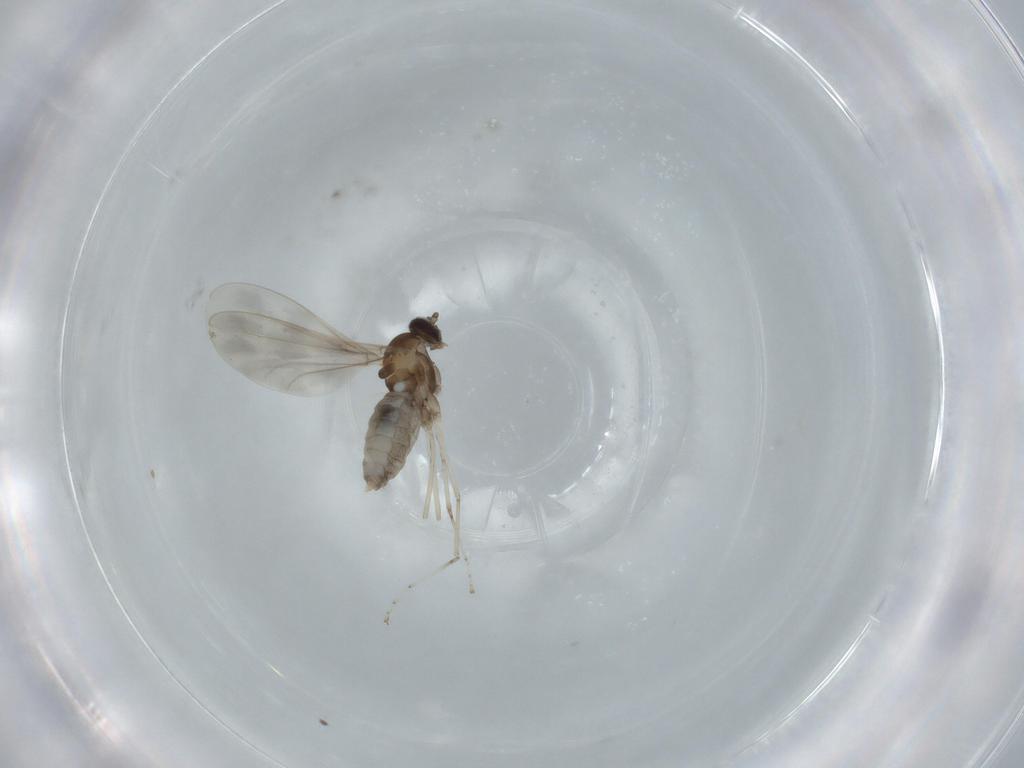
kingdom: Animalia
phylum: Arthropoda
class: Insecta
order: Diptera
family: Cecidomyiidae
